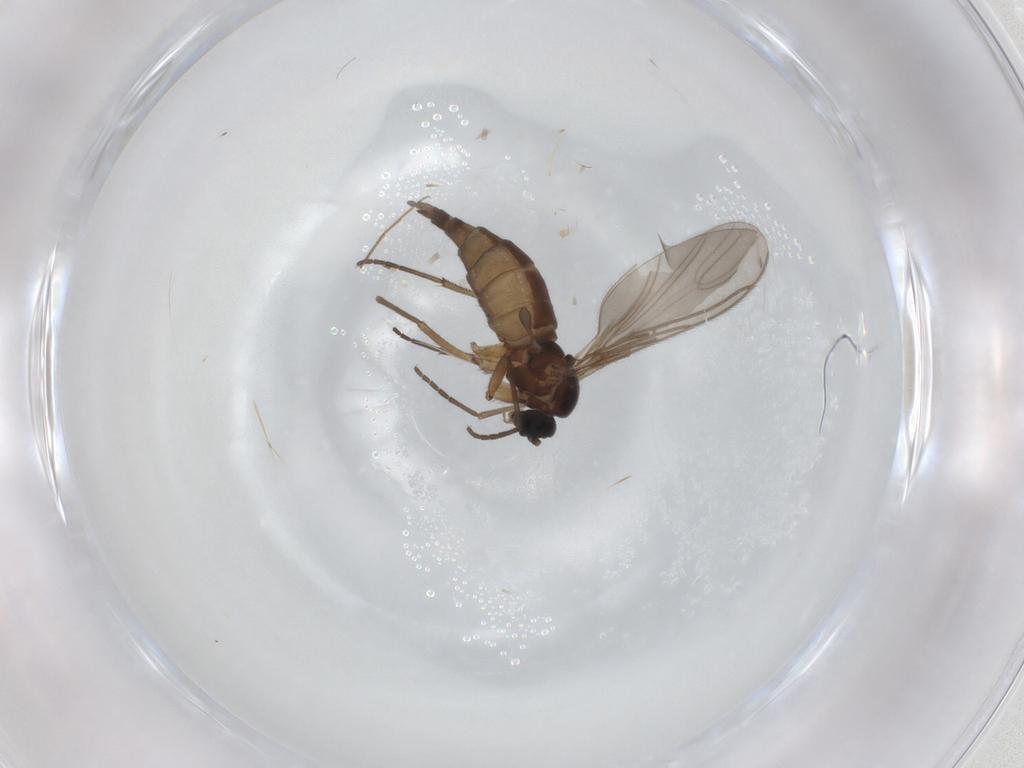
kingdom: Animalia
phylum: Arthropoda
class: Insecta
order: Diptera
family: Sciaridae
